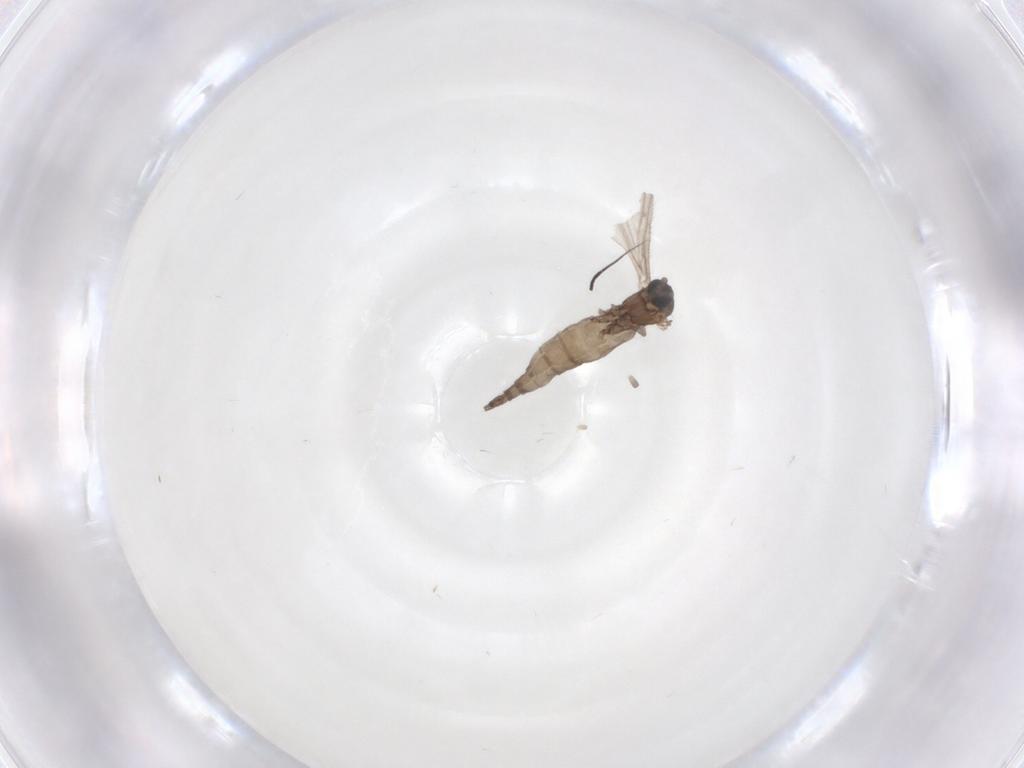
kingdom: Animalia
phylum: Arthropoda
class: Insecta
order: Diptera
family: Sciaridae
